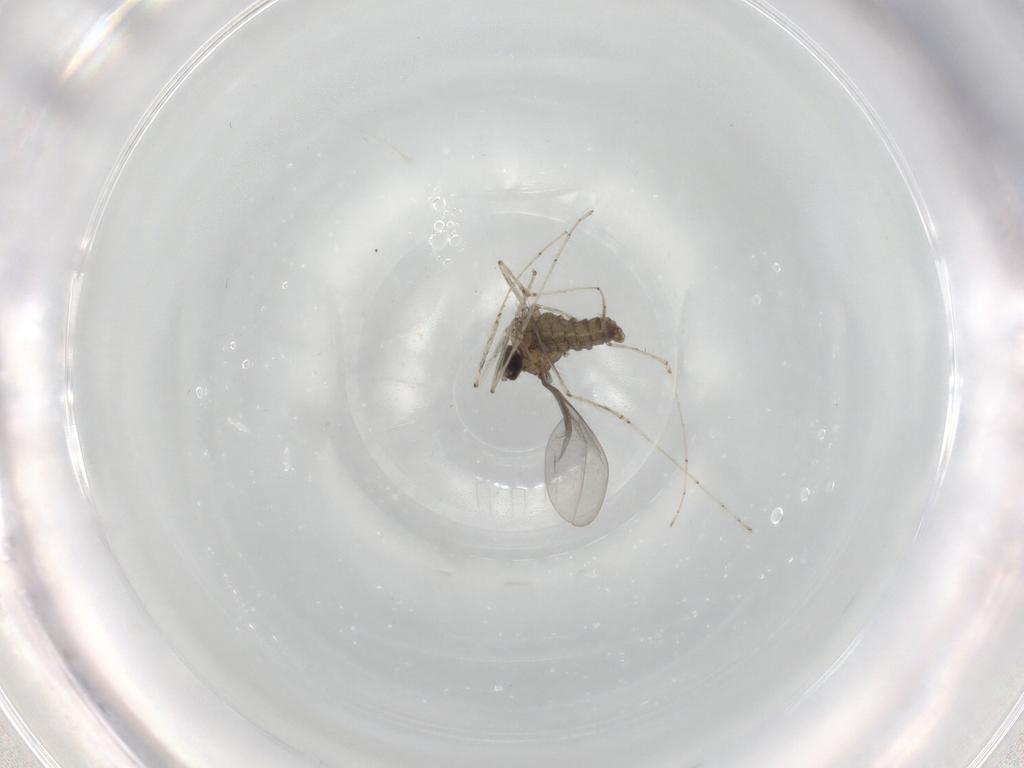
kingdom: Animalia
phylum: Arthropoda
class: Insecta
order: Diptera
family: Cecidomyiidae
